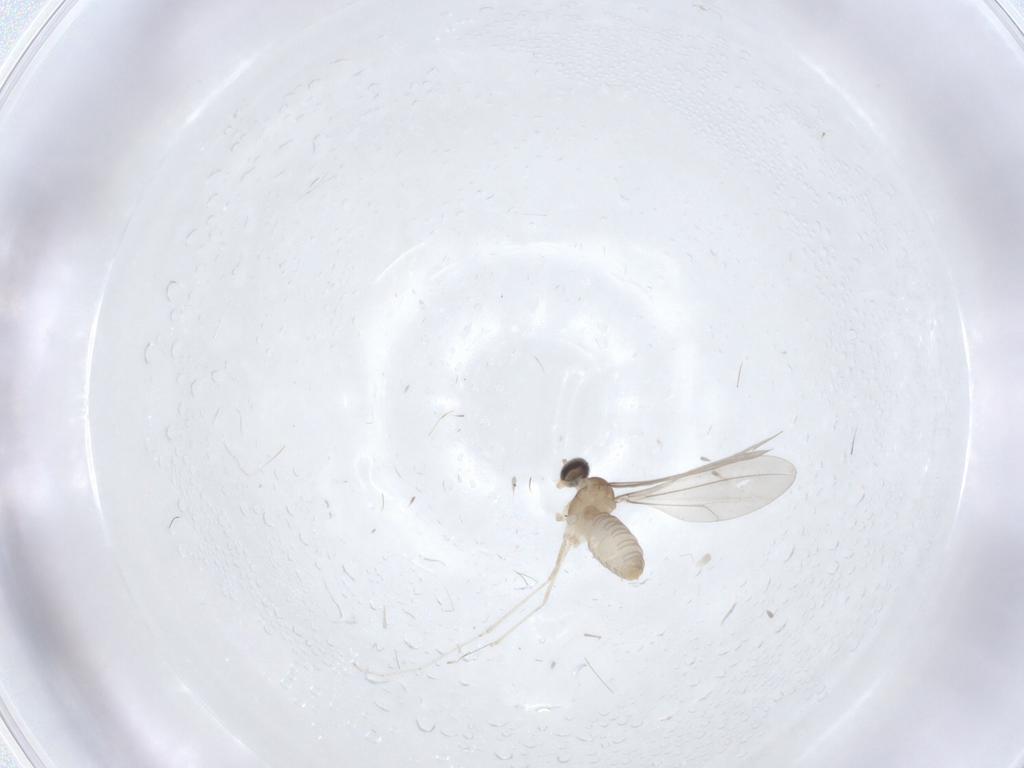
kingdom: Animalia
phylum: Arthropoda
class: Insecta
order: Diptera
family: Cecidomyiidae
